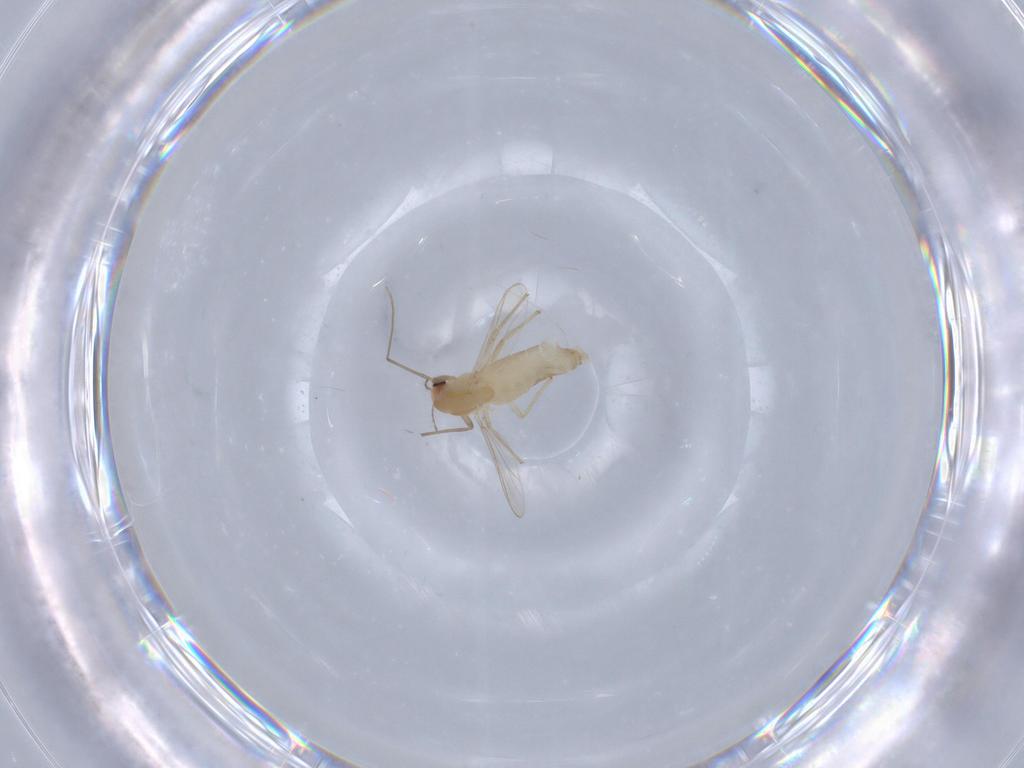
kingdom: Animalia
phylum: Arthropoda
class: Insecta
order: Diptera
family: Chironomidae
